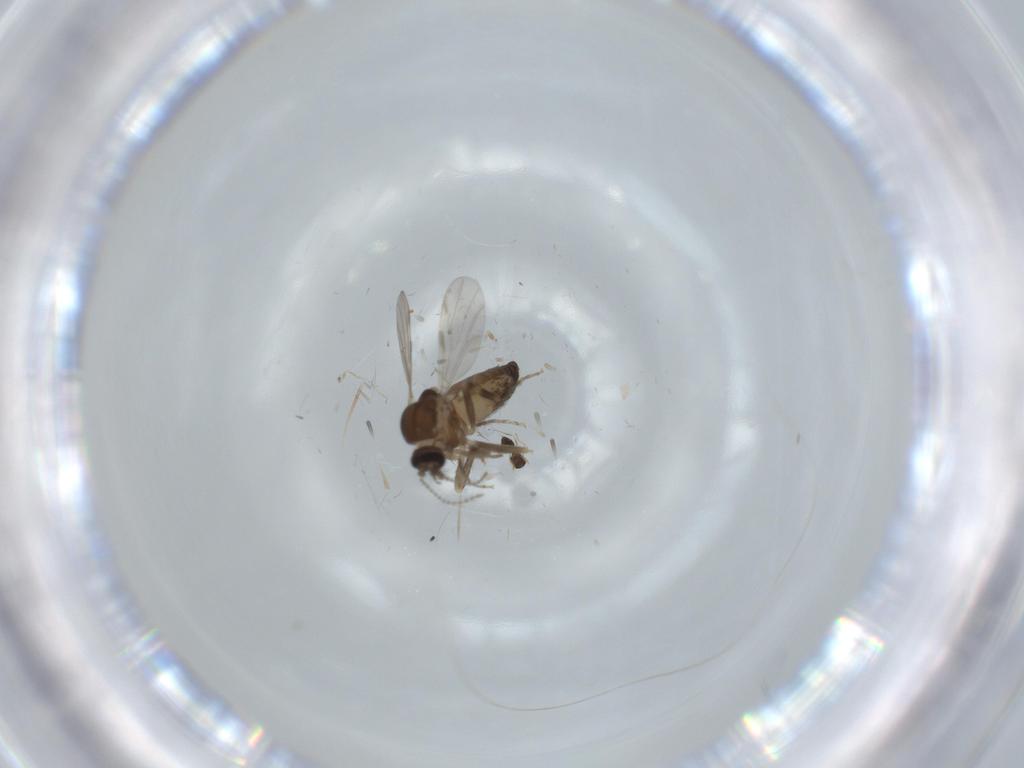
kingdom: Animalia
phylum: Arthropoda
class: Insecta
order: Diptera
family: Ceratopogonidae
